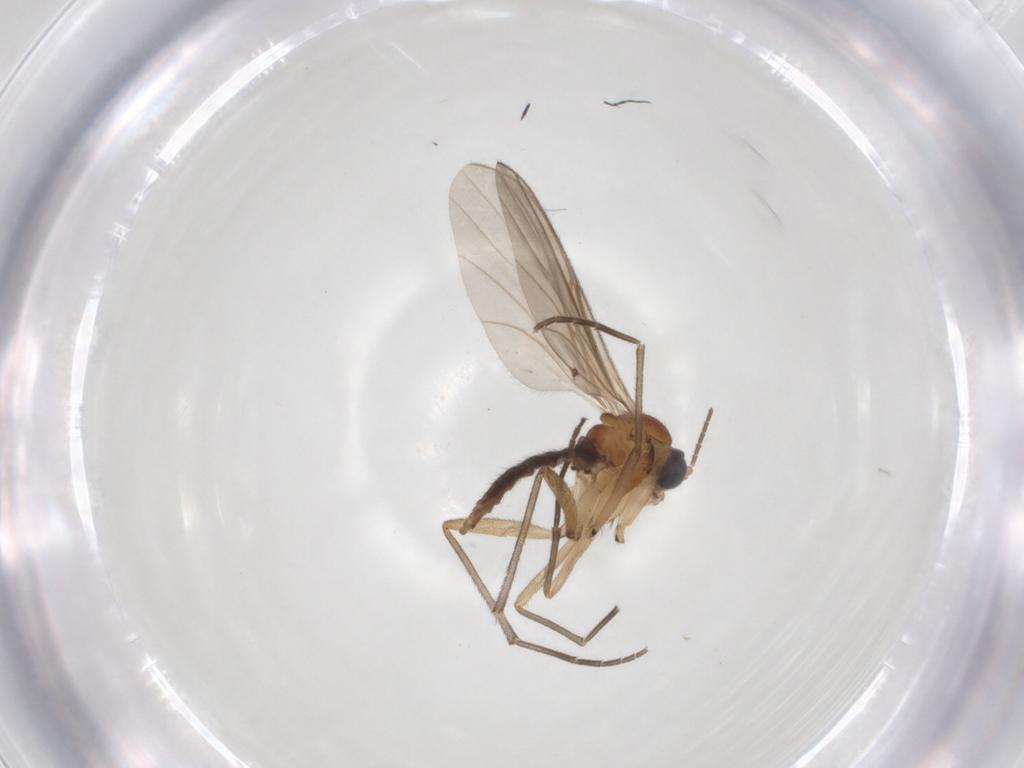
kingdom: Animalia
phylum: Arthropoda
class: Insecta
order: Diptera
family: Sciaridae
